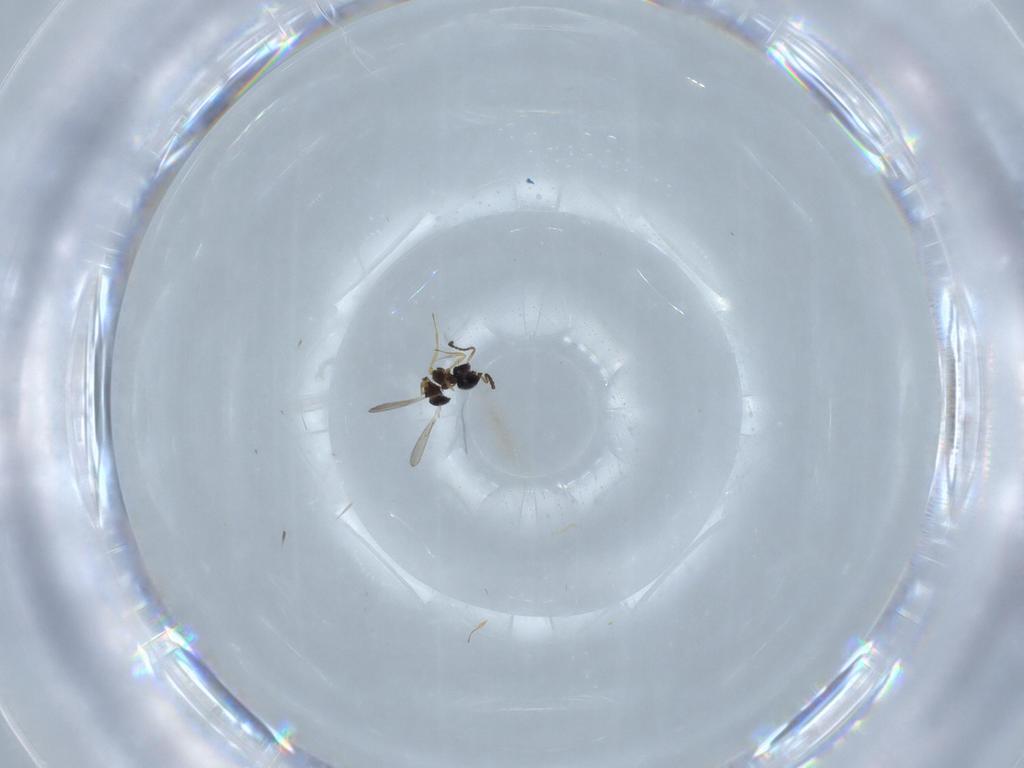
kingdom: Animalia
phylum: Arthropoda
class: Insecta
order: Hymenoptera
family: Scelionidae
